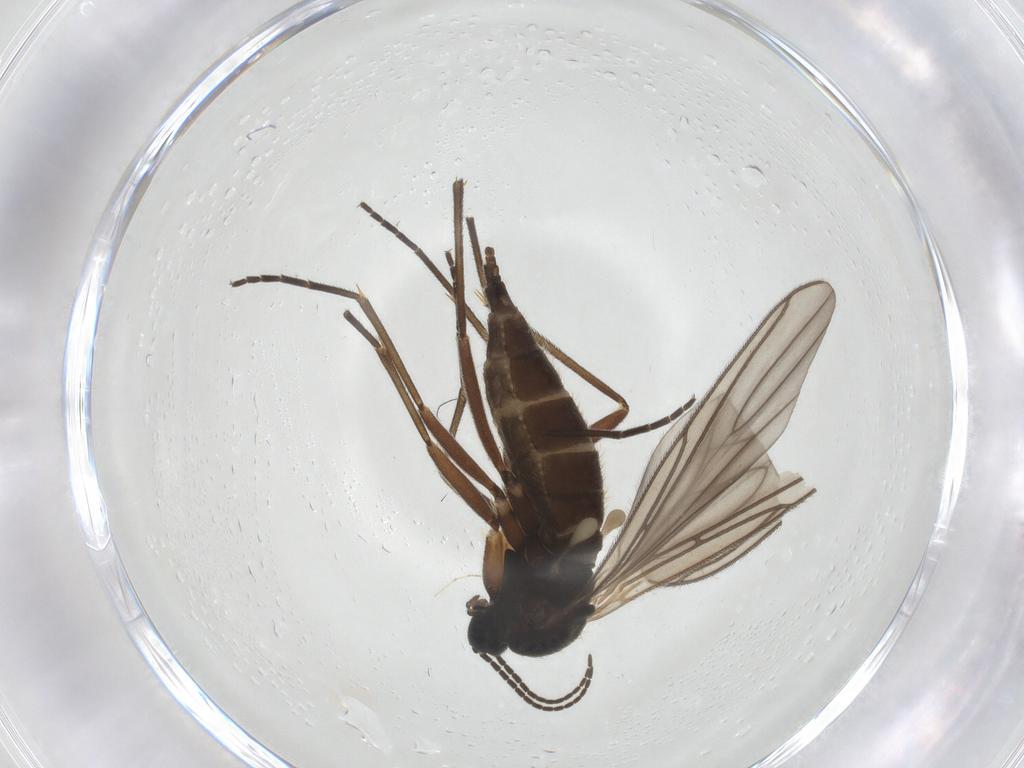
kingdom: Animalia
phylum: Arthropoda
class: Insecta
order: Diptera
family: Sciaridae
